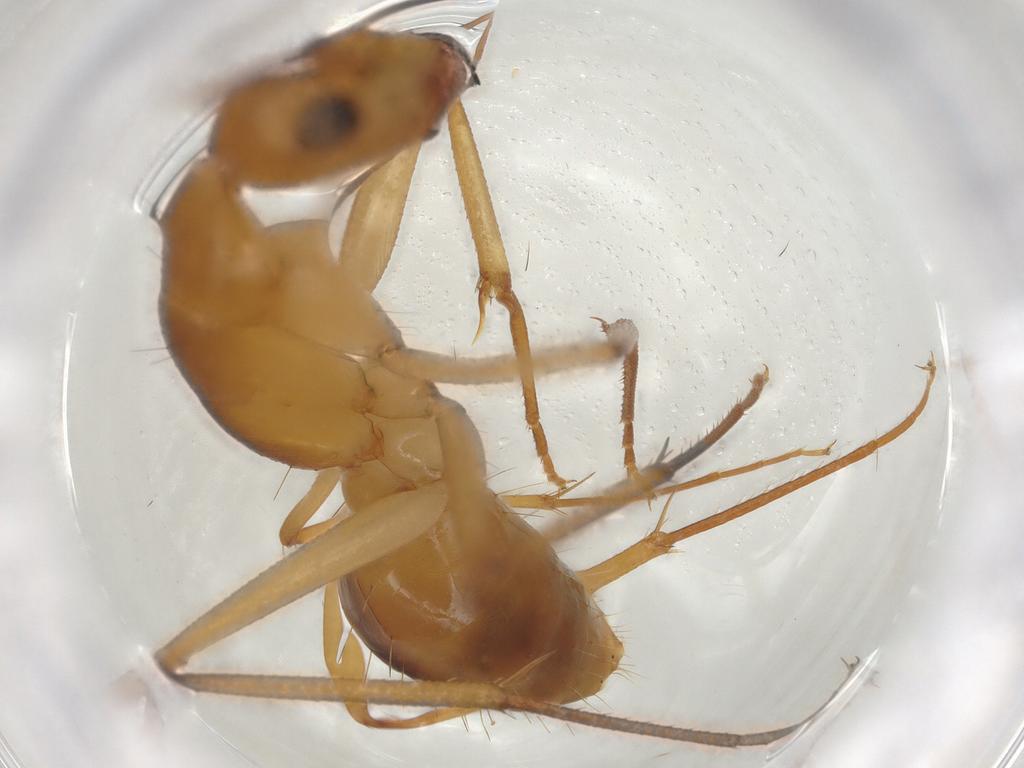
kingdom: Animalia
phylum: Arthropoda
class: Insecta
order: Hymenoptera
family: Formicidae
